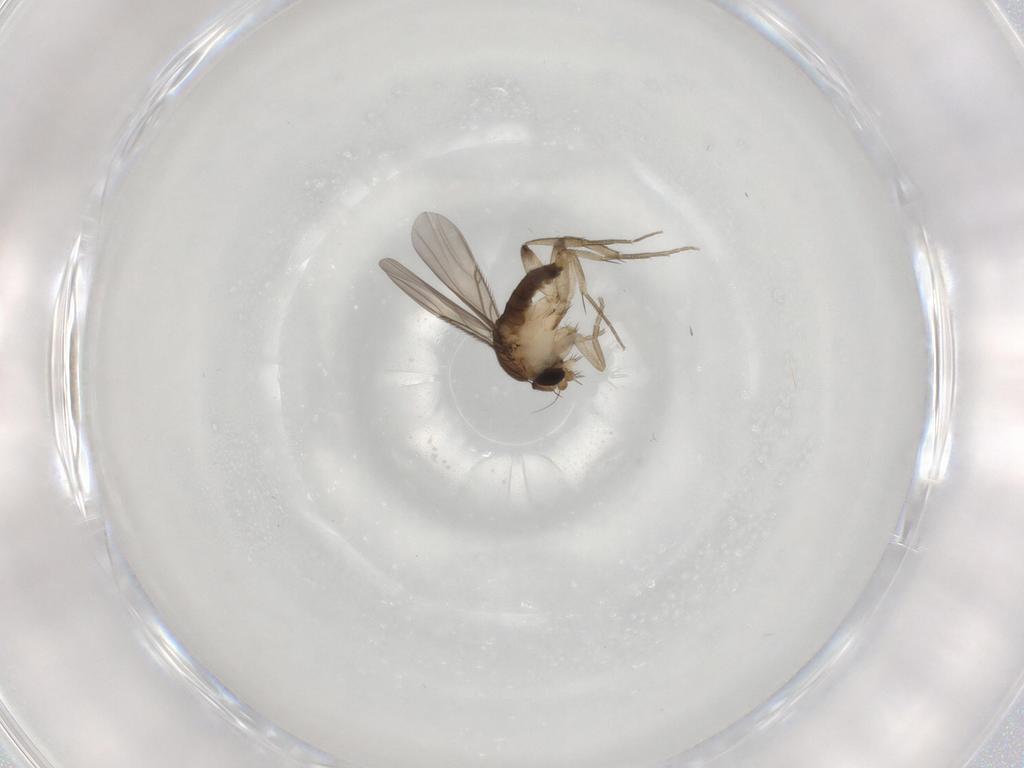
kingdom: Animalia
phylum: Arthropoda
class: Insecta
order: Diptera
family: Phoridae
